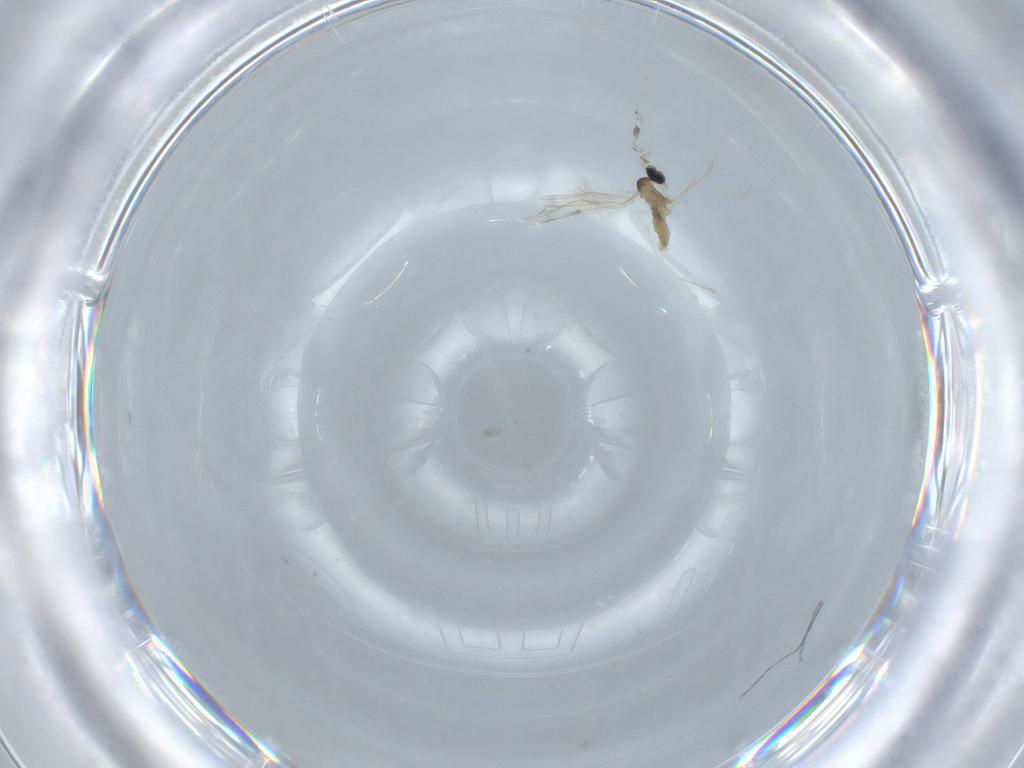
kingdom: Animalia
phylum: Arthropoda
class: Insecta
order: Diptera
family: Cecidomyiidae
